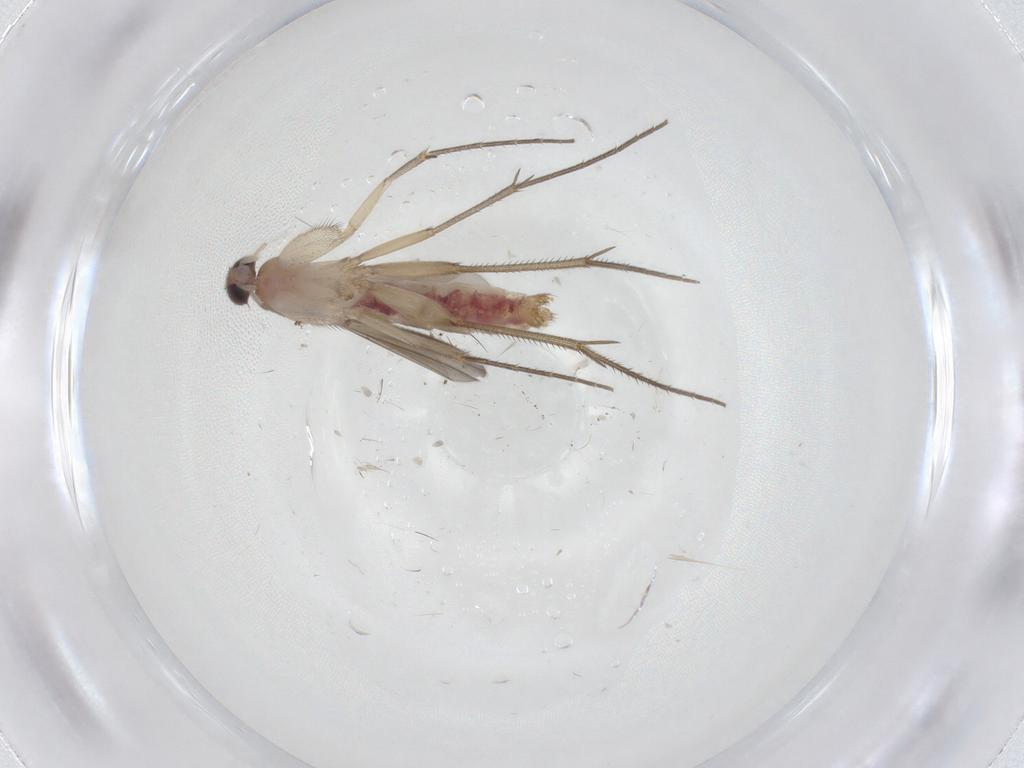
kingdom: Animalia
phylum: Arthropoda
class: Insecta
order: Diptera
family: Mycetophilidae
